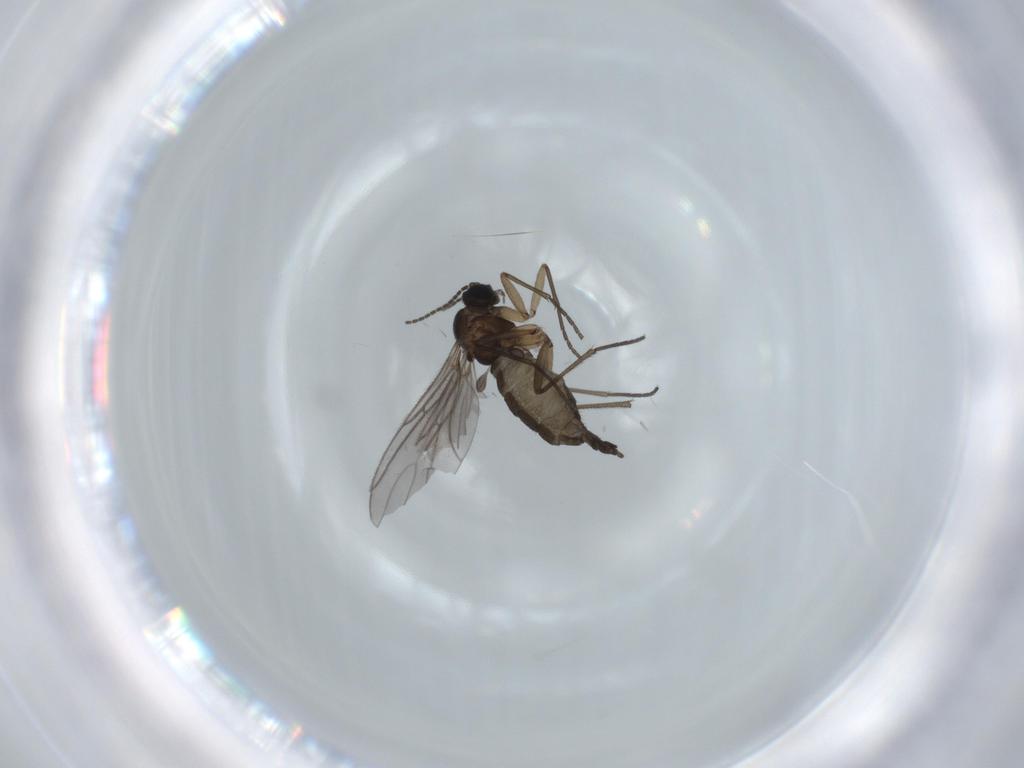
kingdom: Animalia
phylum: Arthropoda
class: Insecta
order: Diptera
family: Sciaridae
